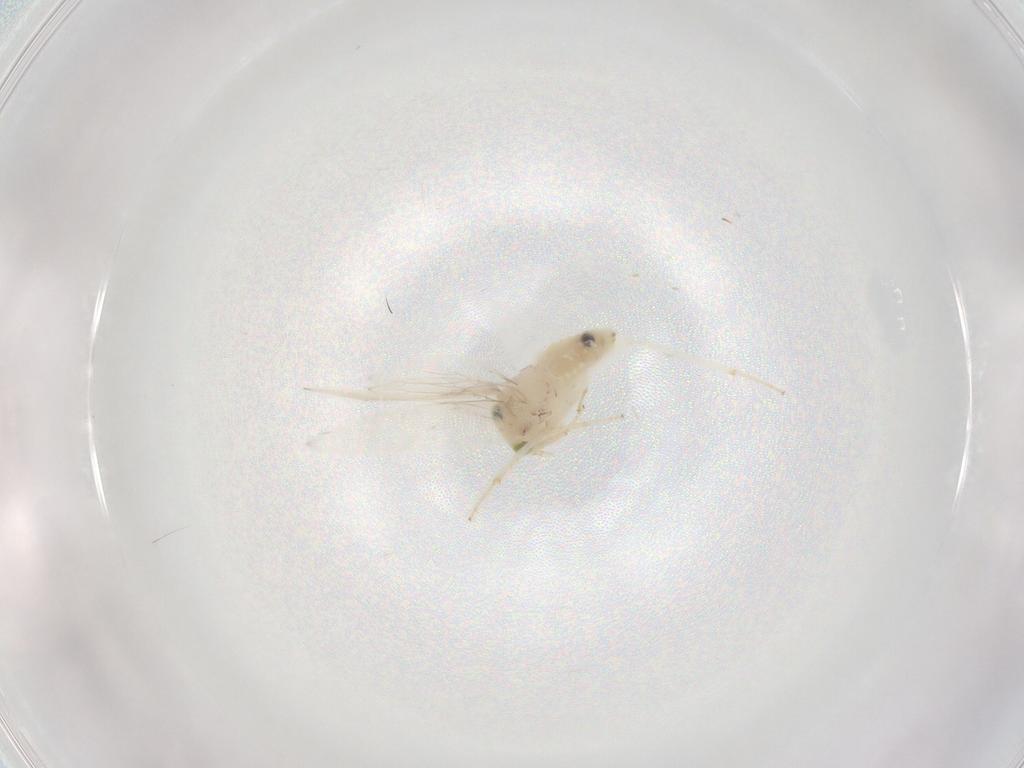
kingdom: Animalia
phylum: Arthropoda
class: Insecta
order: Psocodea
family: Lepidopsocidae
